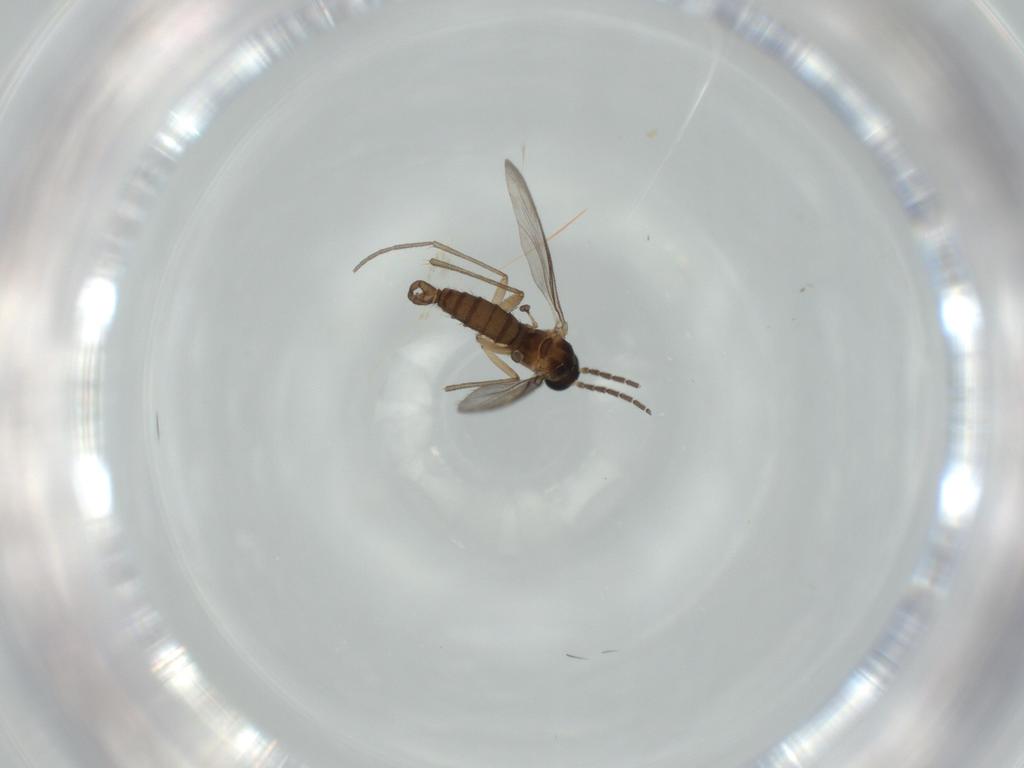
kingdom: Animalia
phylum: Arthropoda
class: Insecta
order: Diptera
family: Sciaridae
